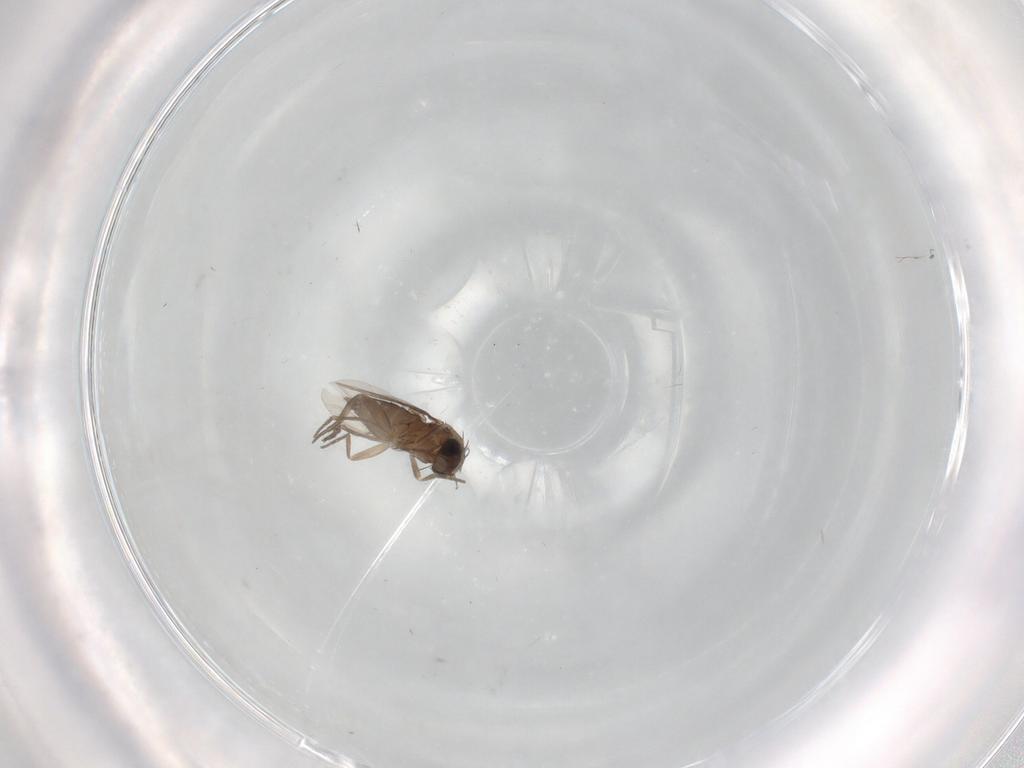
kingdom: Animalia
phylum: Arthropoda
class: Insecta
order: Diptera
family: Phoridae
